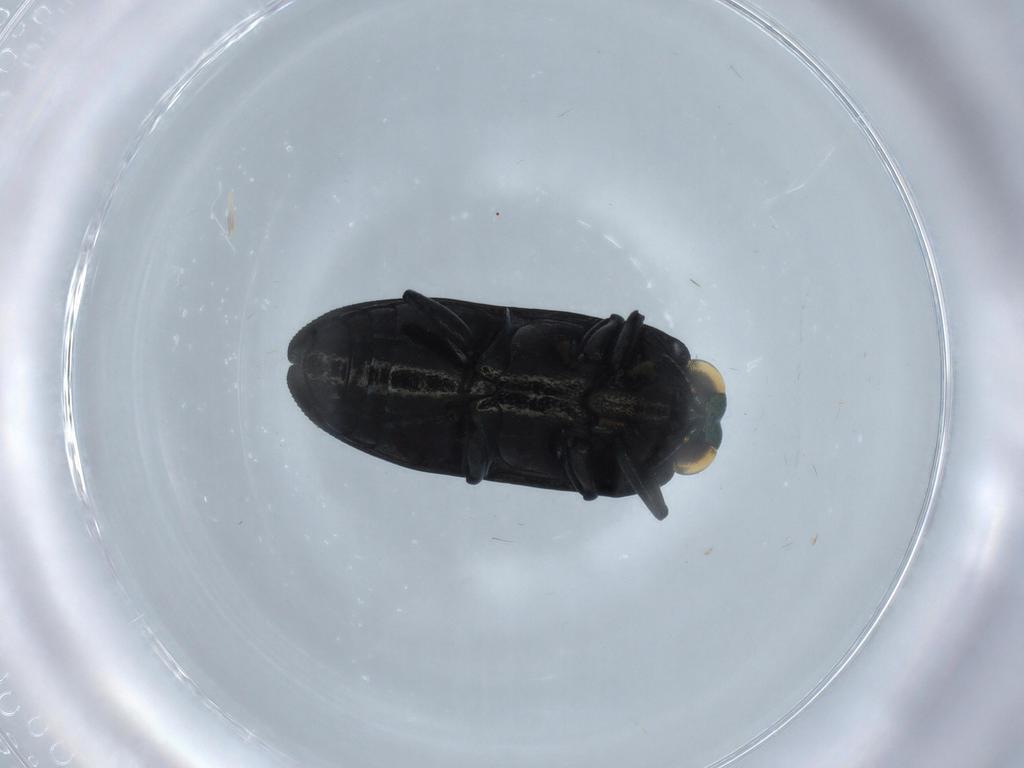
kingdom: Animalia
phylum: Arthropoda
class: Insecta
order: Coleoptera
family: Buprestidae
